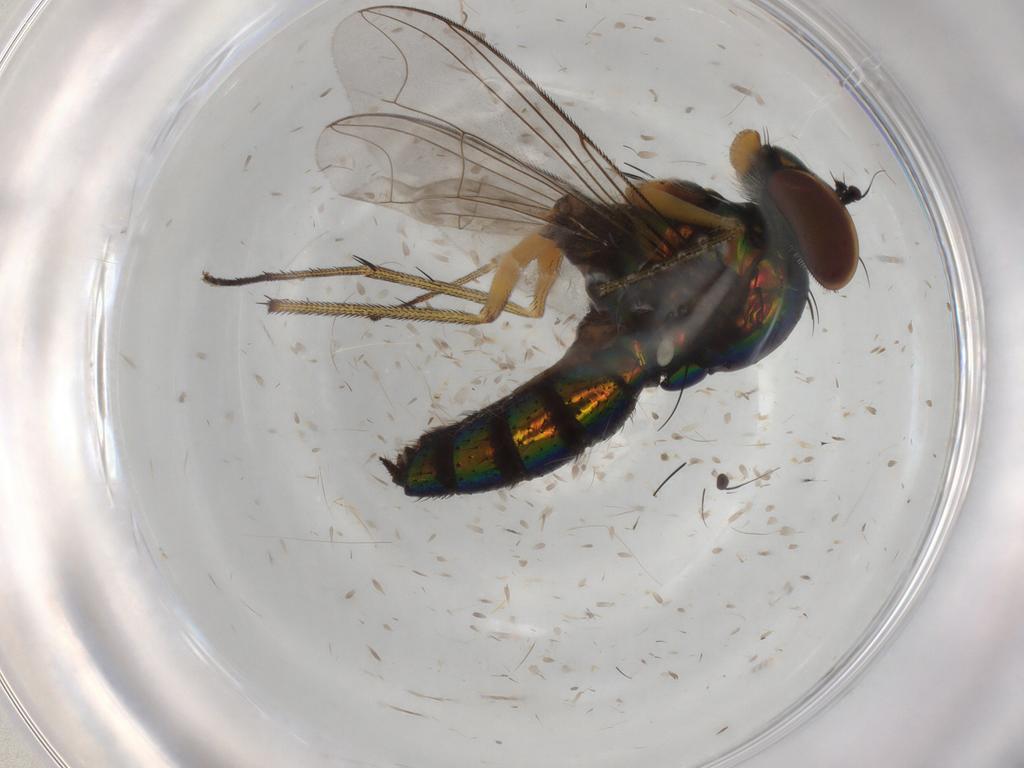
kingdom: Animalia
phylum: Arthropoda
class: Insecta
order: Diptera
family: Dolichopodidae
